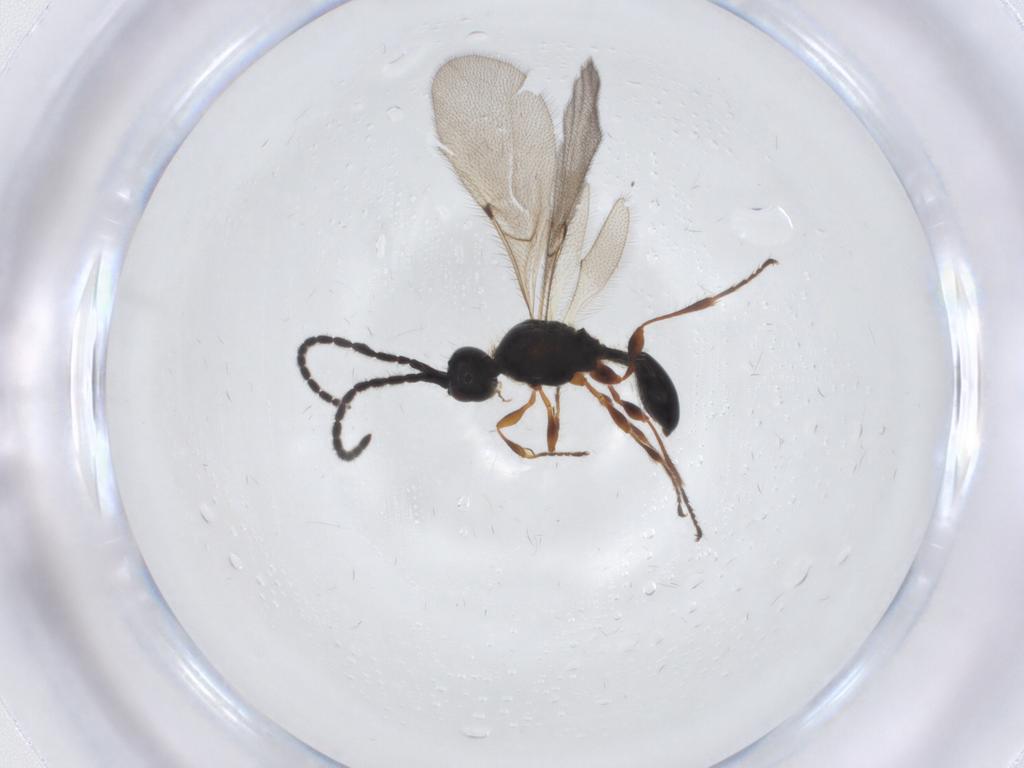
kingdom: Animalia
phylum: Arthropoda
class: Insecta
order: Hymenoptera
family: Diapriidae
